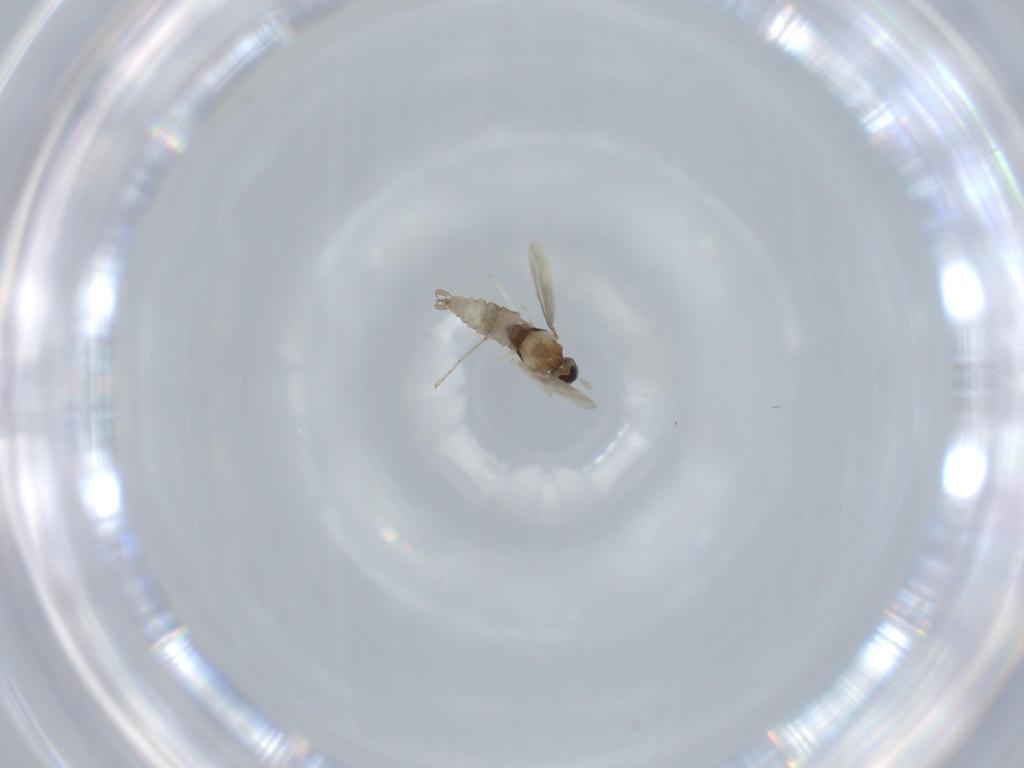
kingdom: Animalia
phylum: Arthropoda
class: Insecta
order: Diptera
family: Cecidomyiidae
